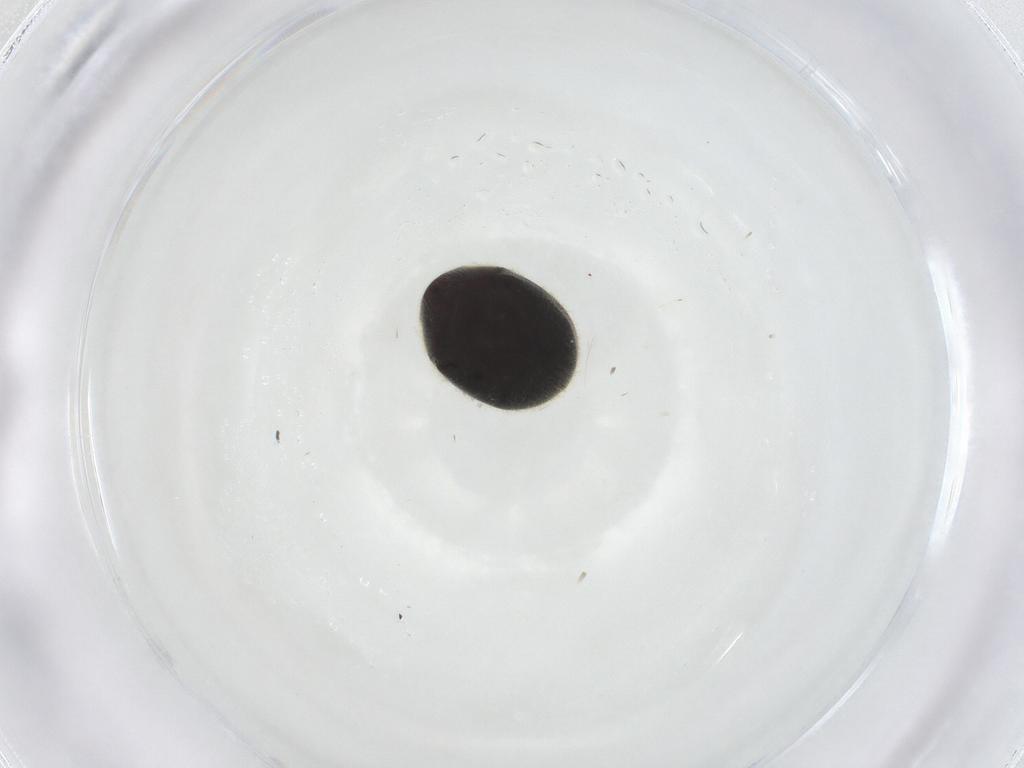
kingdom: Animalia
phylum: Arthropoda
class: Insecta
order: Coleoptera
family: Ptinidae
